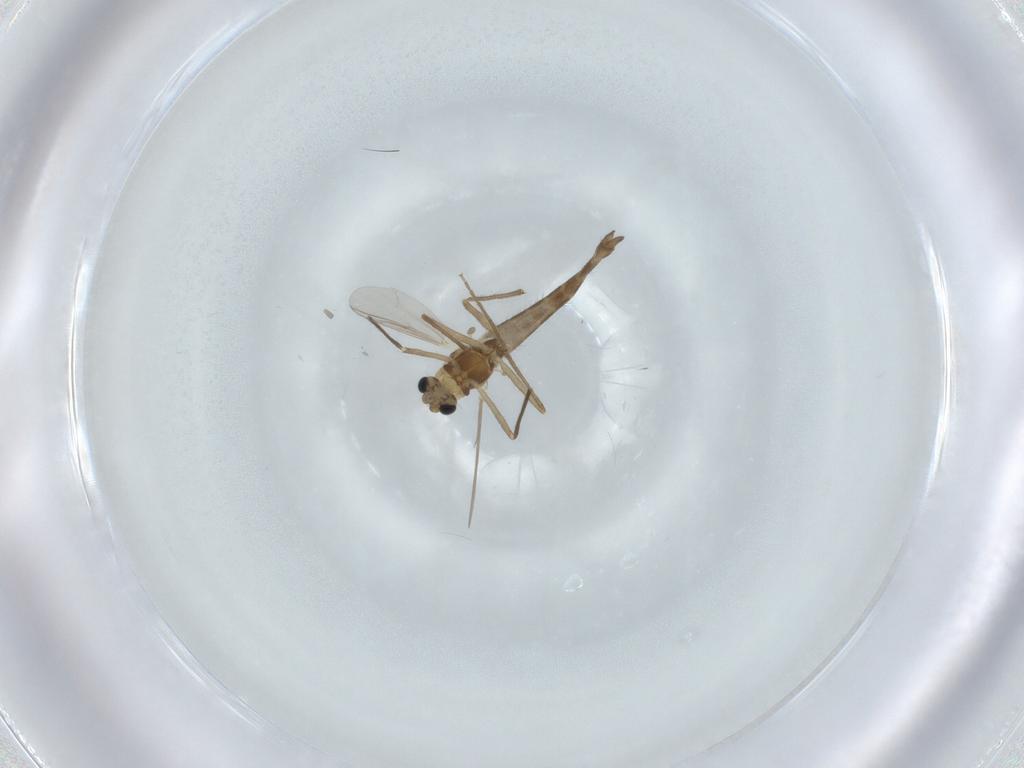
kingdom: Animalia
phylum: Arthropoda
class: Insecta
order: Diptera
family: Chironomidae
